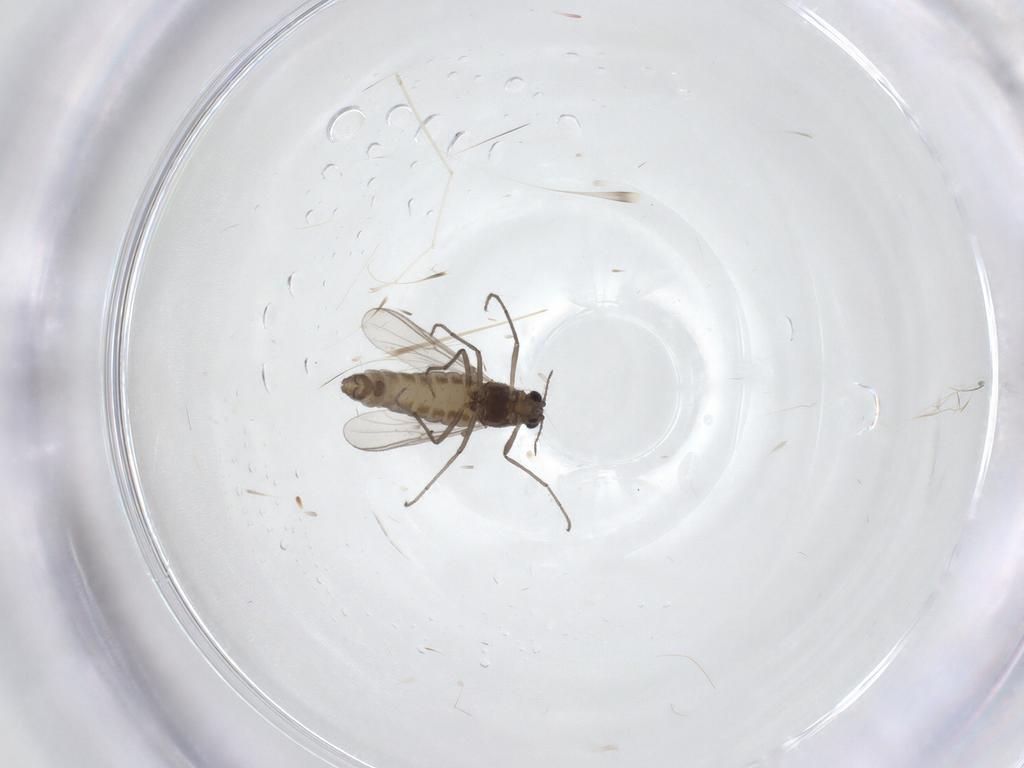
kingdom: Animalia
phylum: Arthropoda
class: Insecta
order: Diptera
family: Chironomidae
